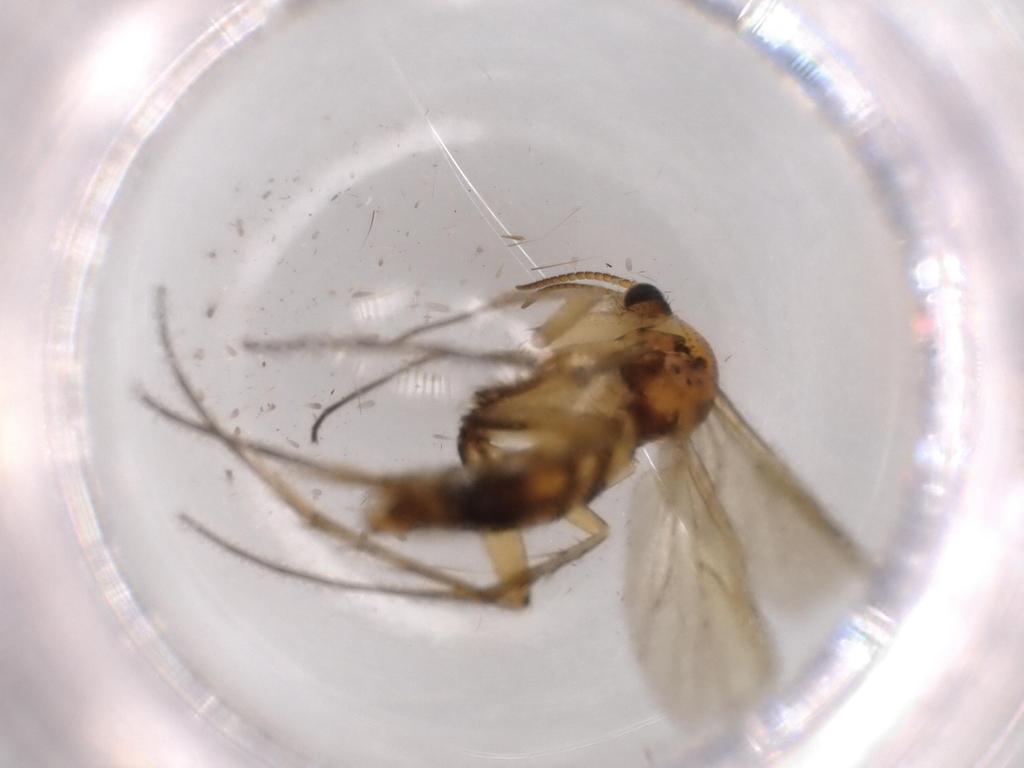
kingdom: Animalia
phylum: Arthropoda
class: Insecta
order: Diptera
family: Mycetophilidae
